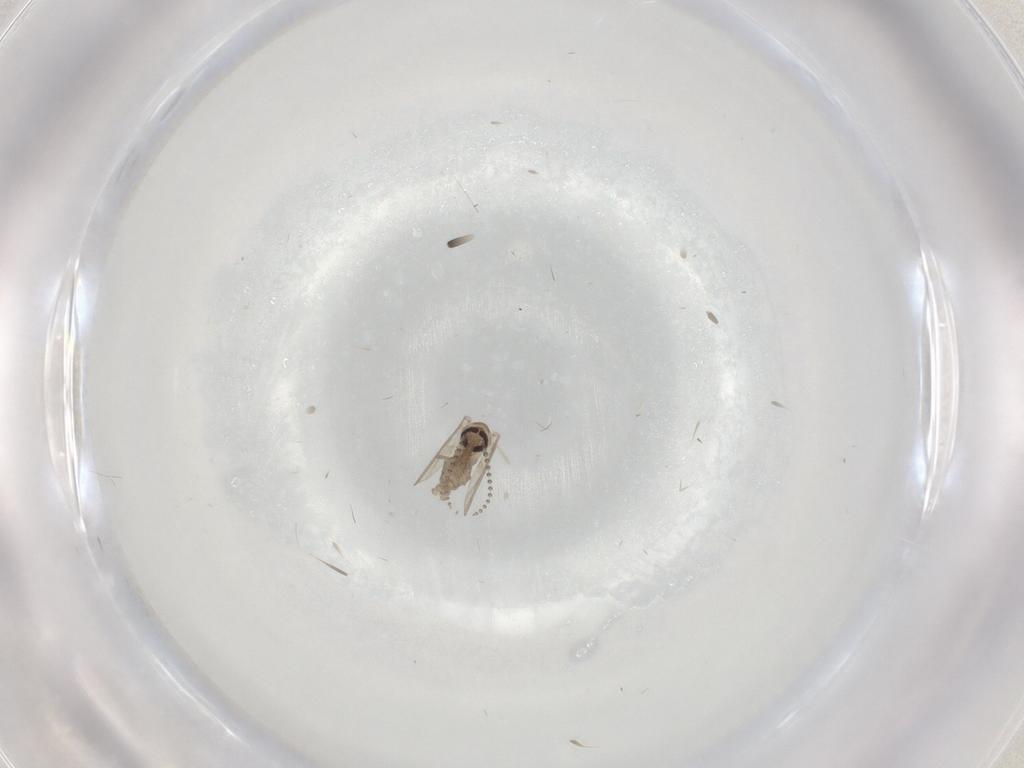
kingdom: Animalia
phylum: Arthropoda
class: Insecta
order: Diptera
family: Psychodidae
